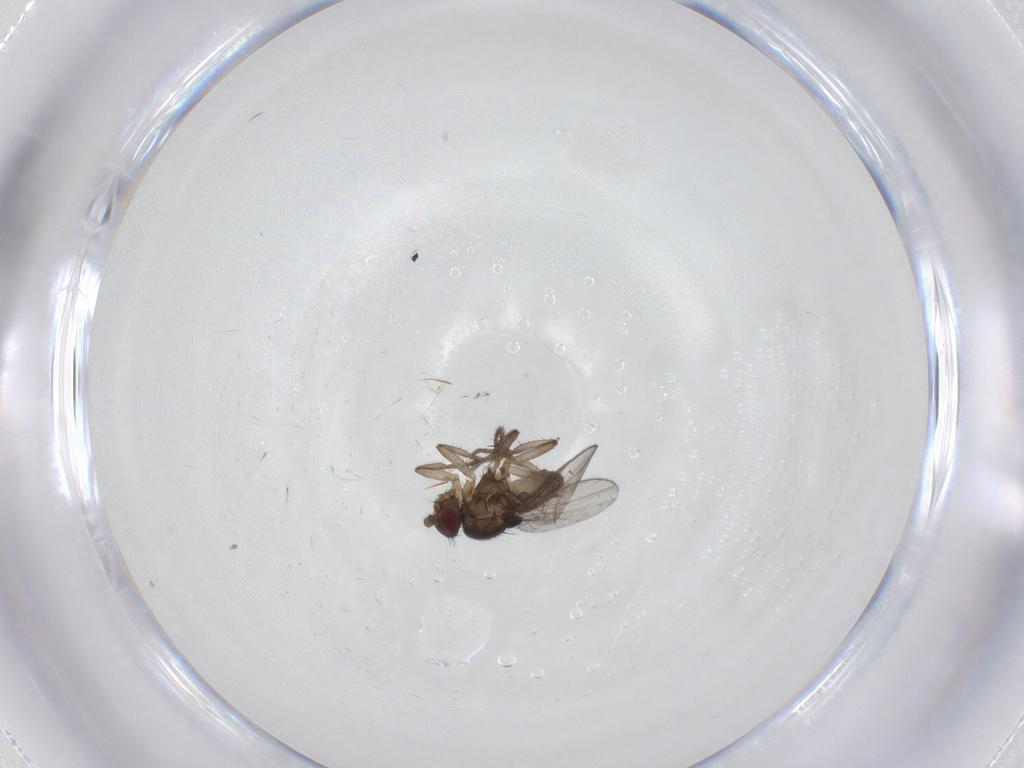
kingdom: Animalia
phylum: Arthropoda
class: Insecta
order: Diptera
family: Sphaeroceridae
